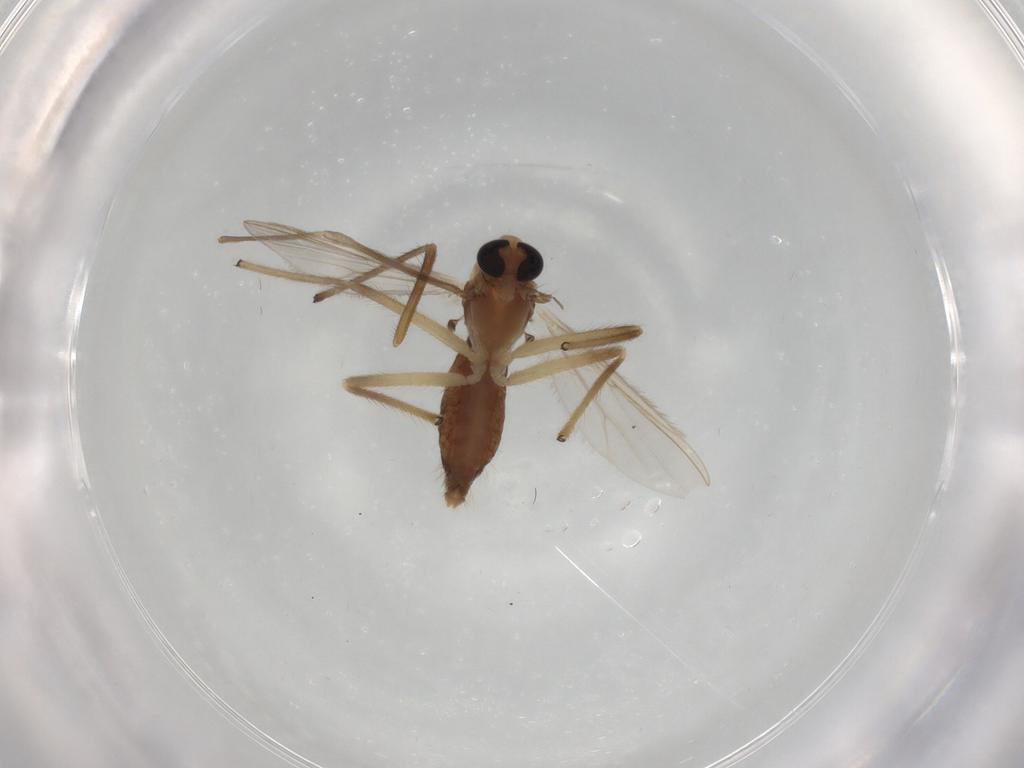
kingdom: Animalia
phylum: Arthropoda
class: Insecta
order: Diptera
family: Chironomidae
